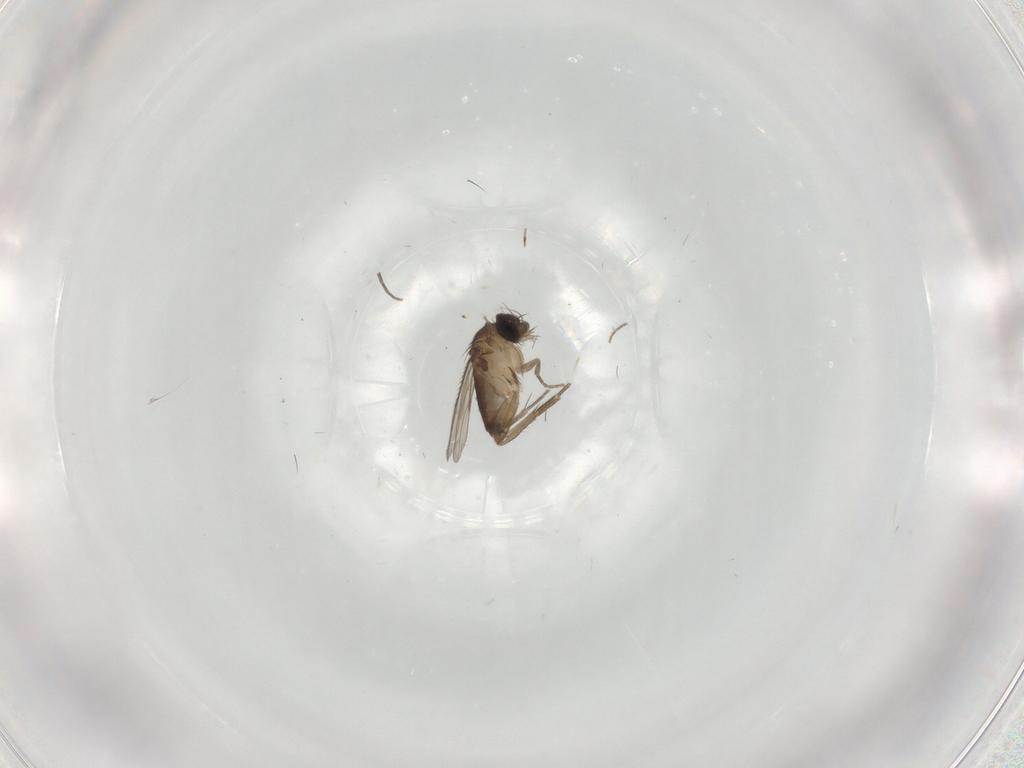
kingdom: Animalia
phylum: Arthropoda
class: Insecta
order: Diptera
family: Phoridae
